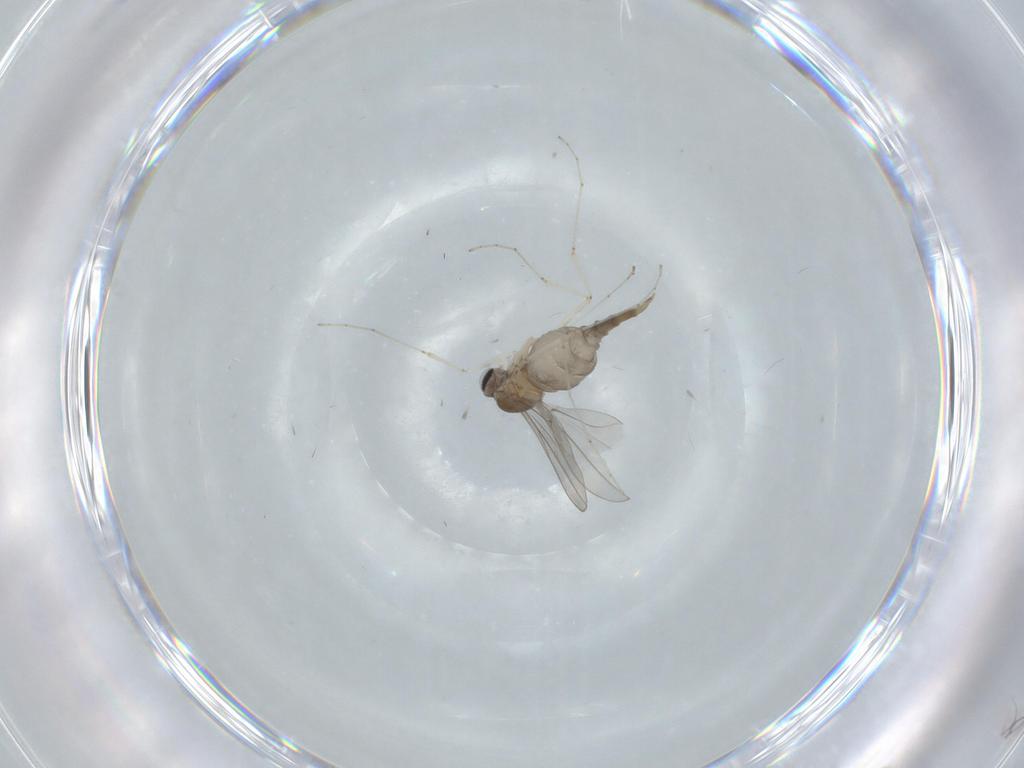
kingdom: Animalia
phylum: Arthropoda
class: Insecta
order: Diptera
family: Cecidomyiidae
